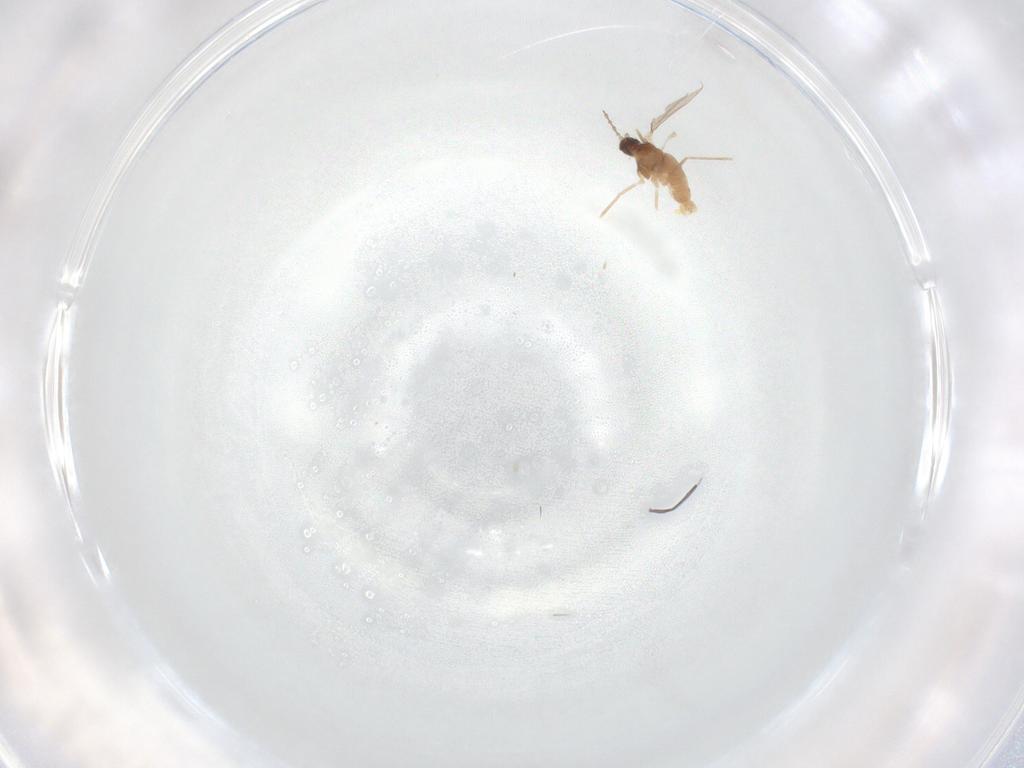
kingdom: Animalia
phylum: Arthropoda
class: Insecta
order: Diptera
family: Cecidomyiidae
